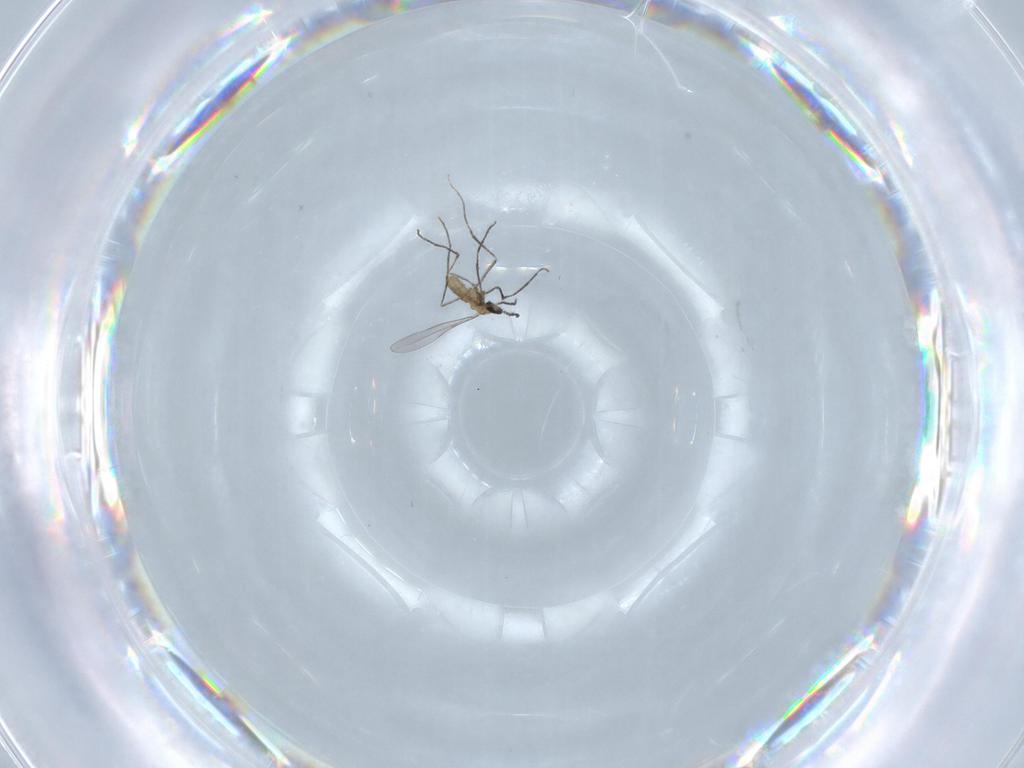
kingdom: Animalia
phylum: Arthropoda
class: Insecta
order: Diptera
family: Cecidomyiidae
